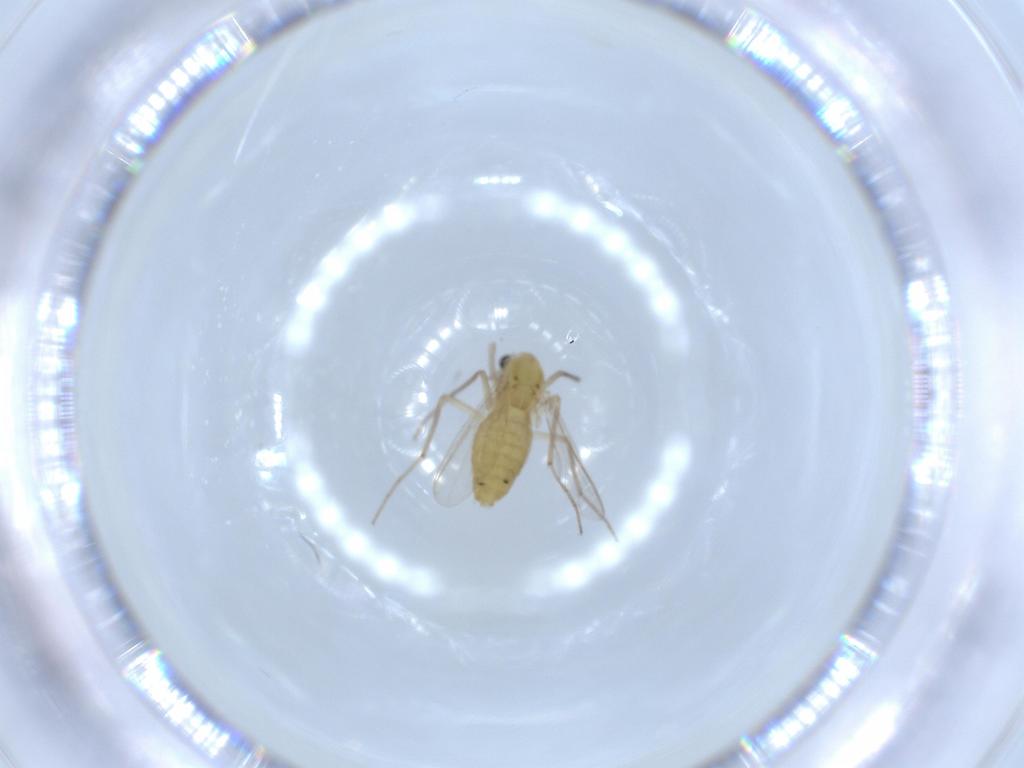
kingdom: Animalia
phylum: Arthropoda
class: Insecta
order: Diptera
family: Chironomidae
